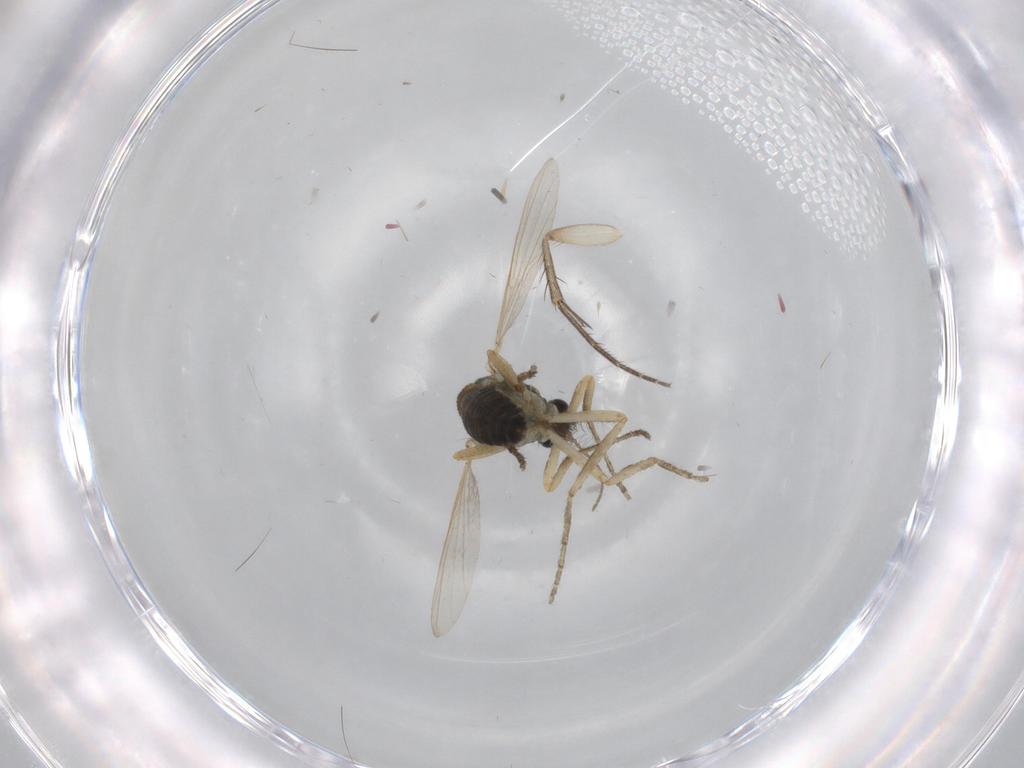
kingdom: Animalia
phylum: Arthropoda
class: Insecta
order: Diptera
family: Ceratopogonidae
